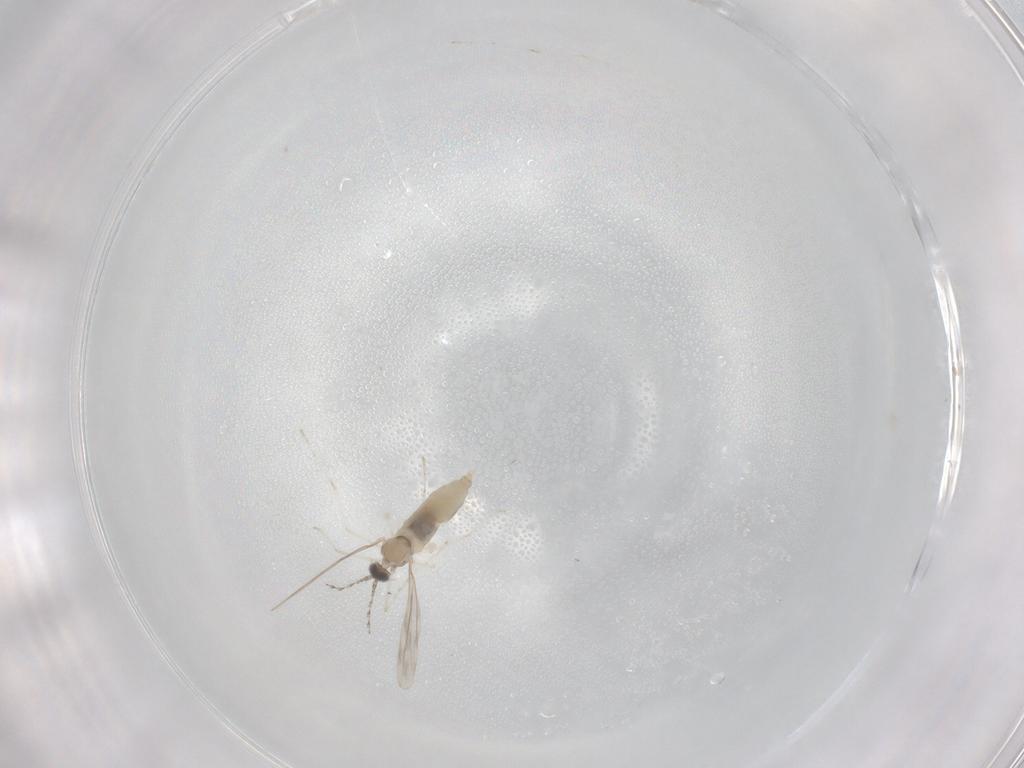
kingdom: Animalia
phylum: Arthropoda
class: Insecta
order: Diptera
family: Cecidomyiidae
